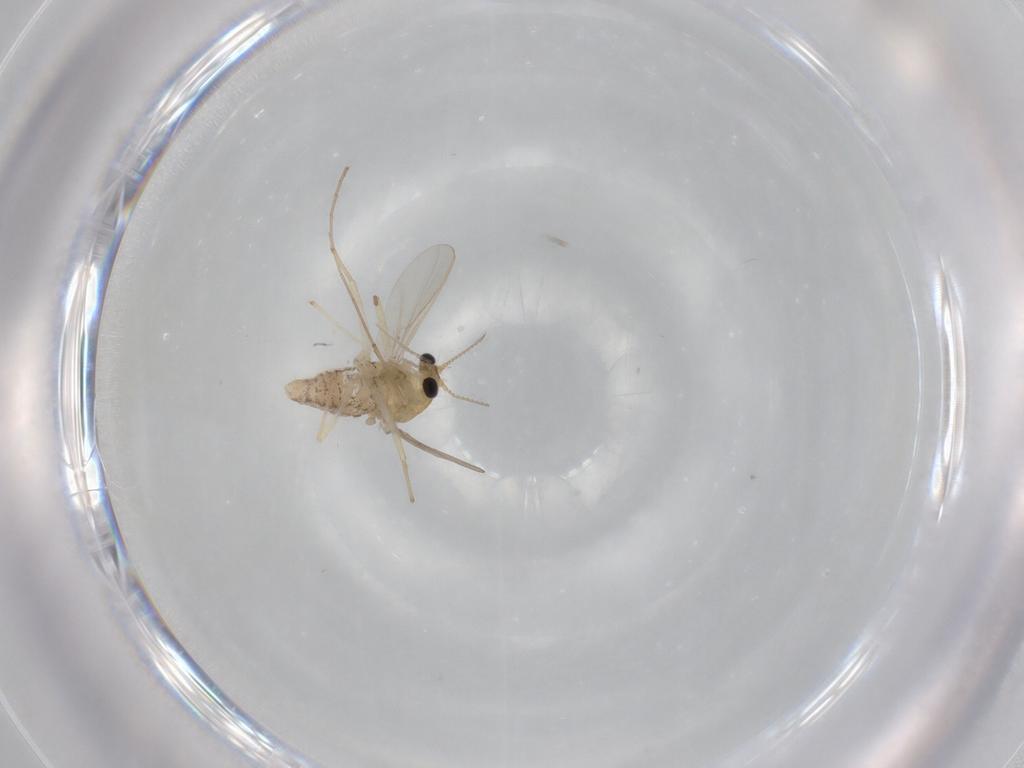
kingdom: Animalia
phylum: Arthropoda
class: Insecta
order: Diptera
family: Chironomidae
